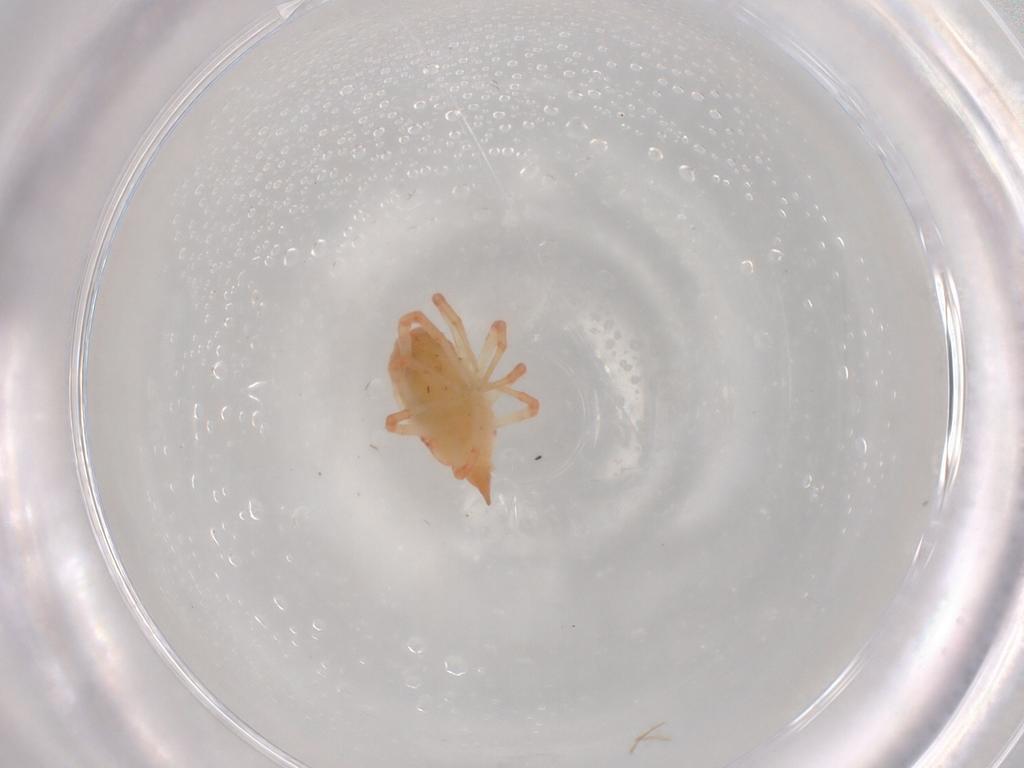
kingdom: Animalia
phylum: Arthropoda
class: Arachnida
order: Trombidiformes
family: Bdellidae
